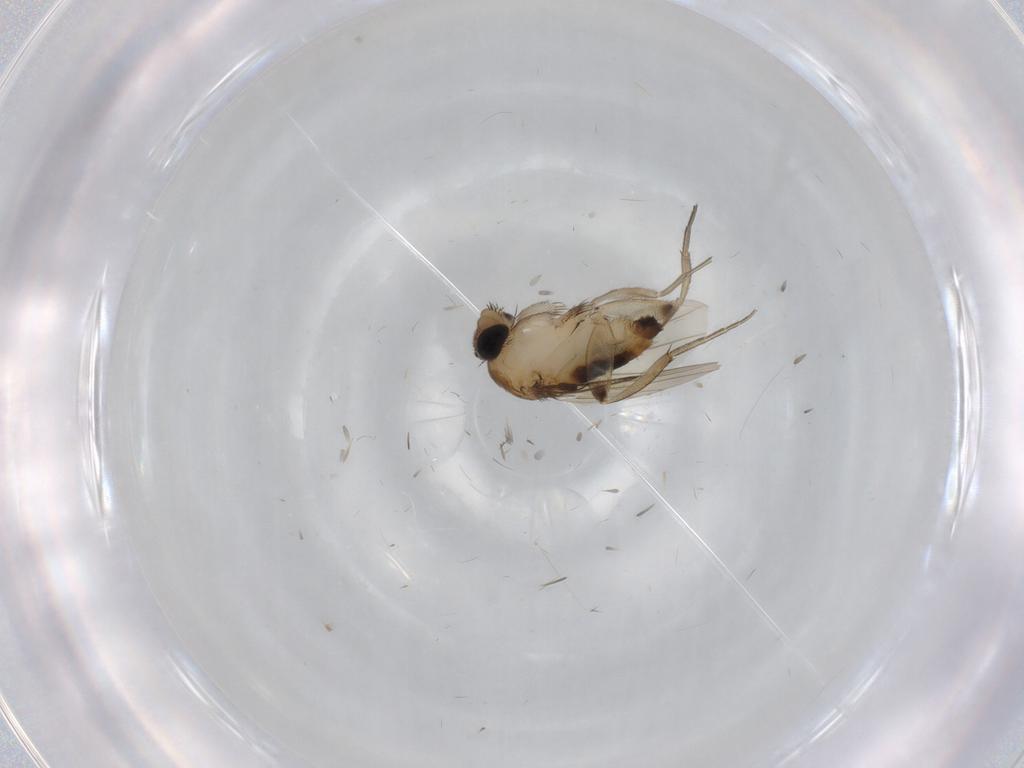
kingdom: Animalia
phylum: Arthropoda
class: Insecta
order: Diptera
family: Phoridae
